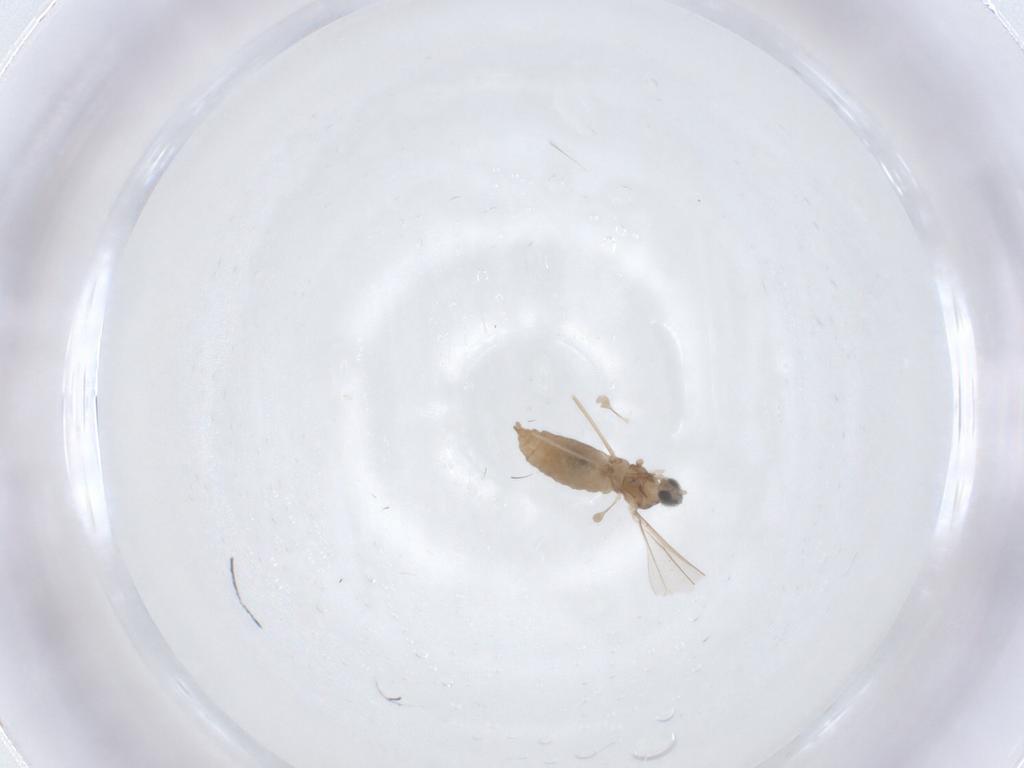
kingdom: Animalia
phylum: Arthropoda
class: Insecta
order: Diptera
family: Cecidomyiidae
